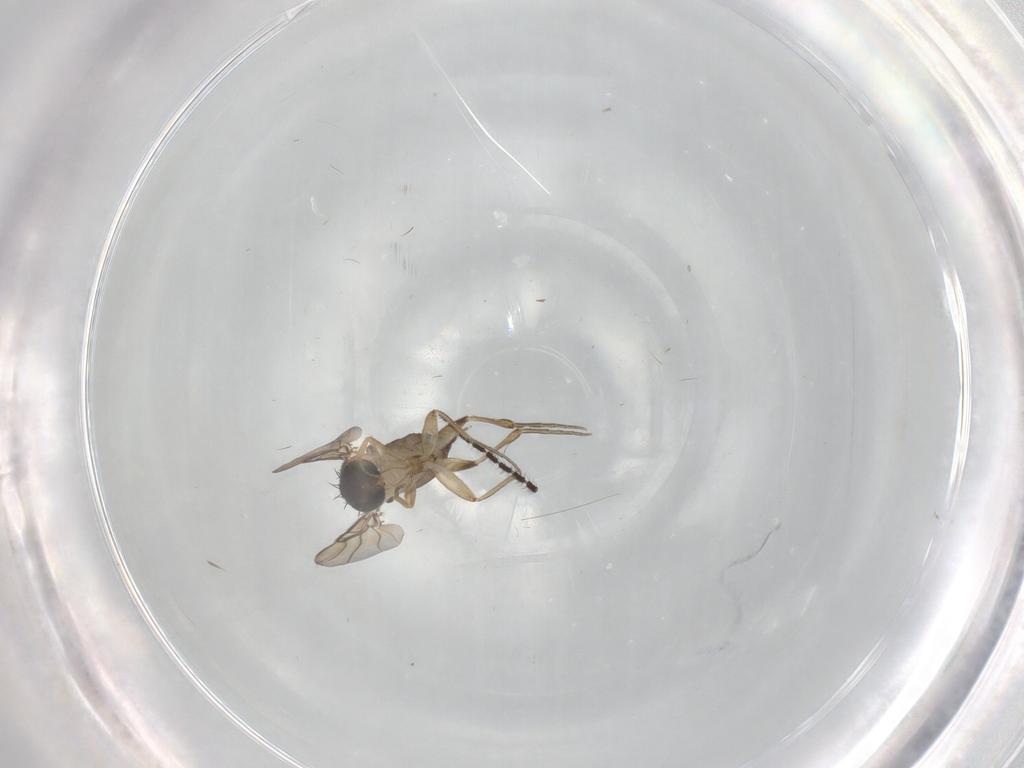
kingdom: Animalia
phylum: Arthropoda
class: Insecta
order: Diptera
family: Phoridae
